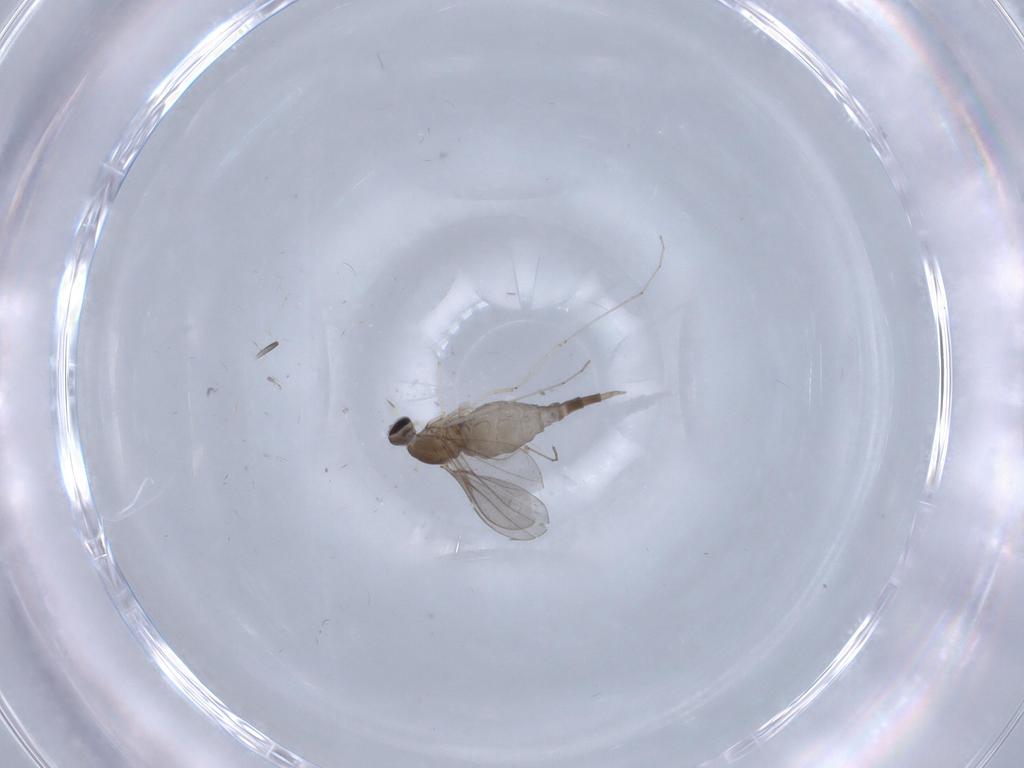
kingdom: Animalia
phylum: Arthropoda
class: Insecta
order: Diptera
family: Cecidomyiidae
